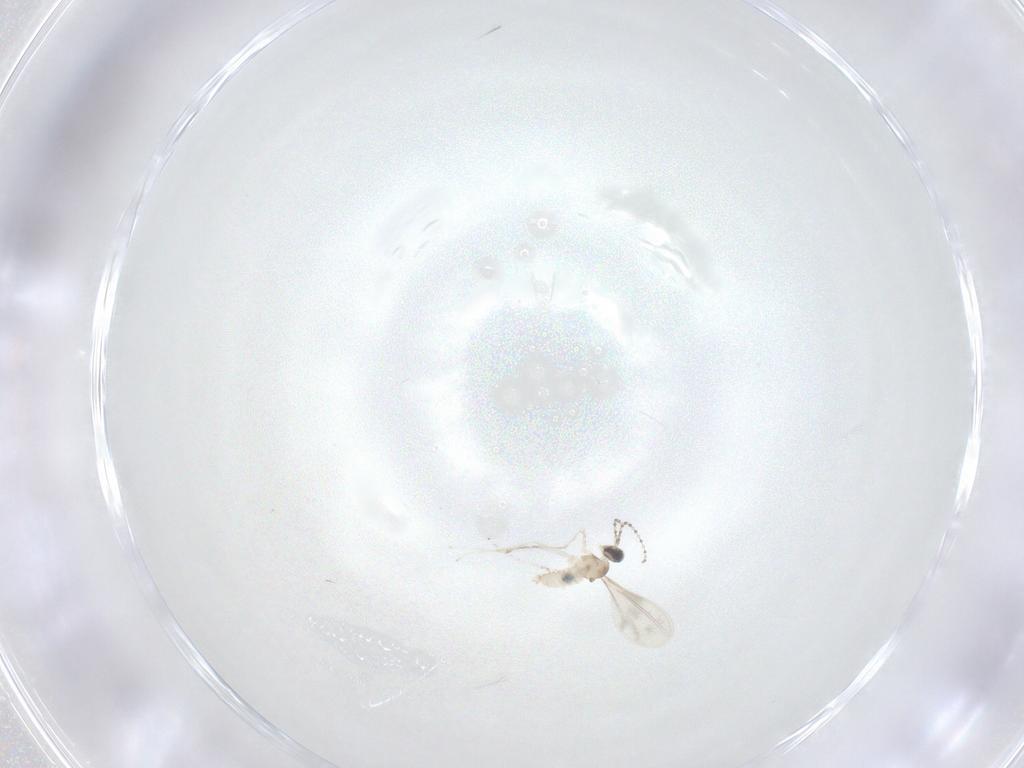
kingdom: Animalia
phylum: Arthropoda
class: Insecta
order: Diptera
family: Cecidomyiidae
